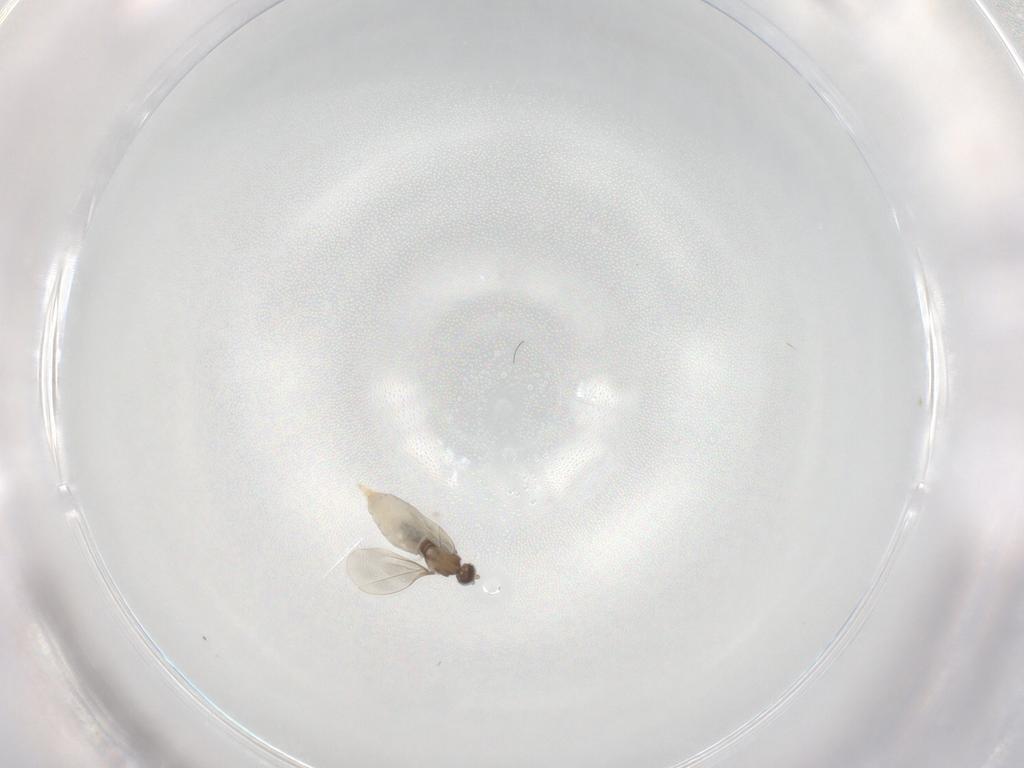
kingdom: Animalia
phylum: Arthropoda
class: Insecta
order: Diptera
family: Cecidomyiidae
